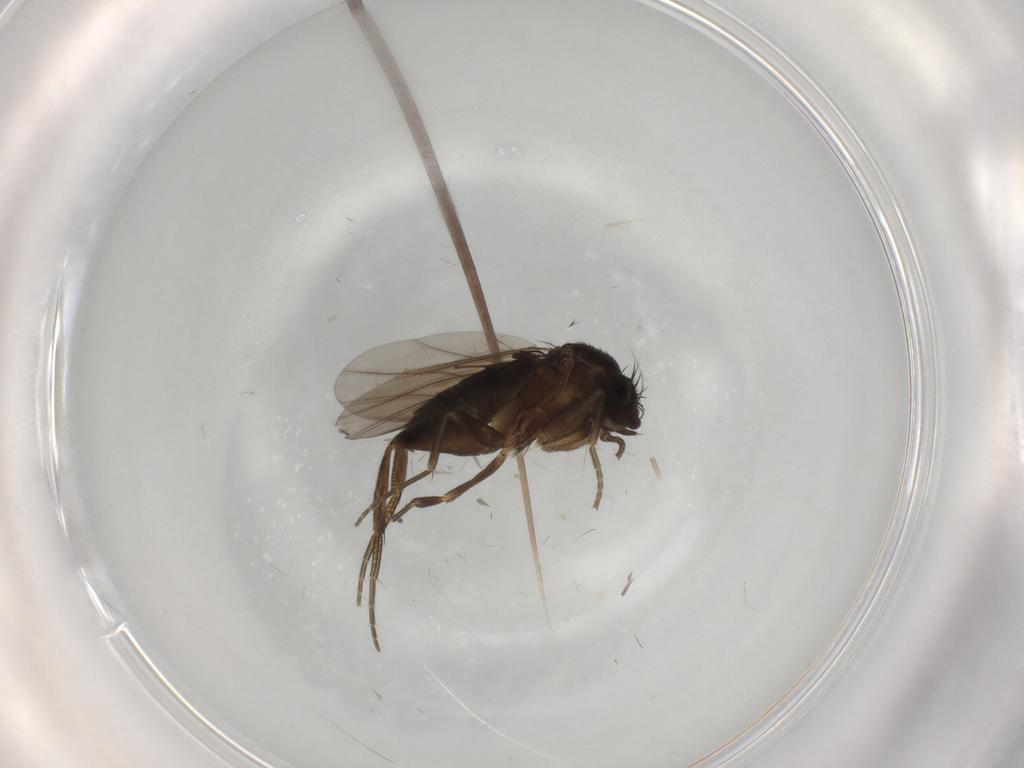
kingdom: Animalia
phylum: Arthropoda
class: Insecta
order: Diptera
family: Phoridae
